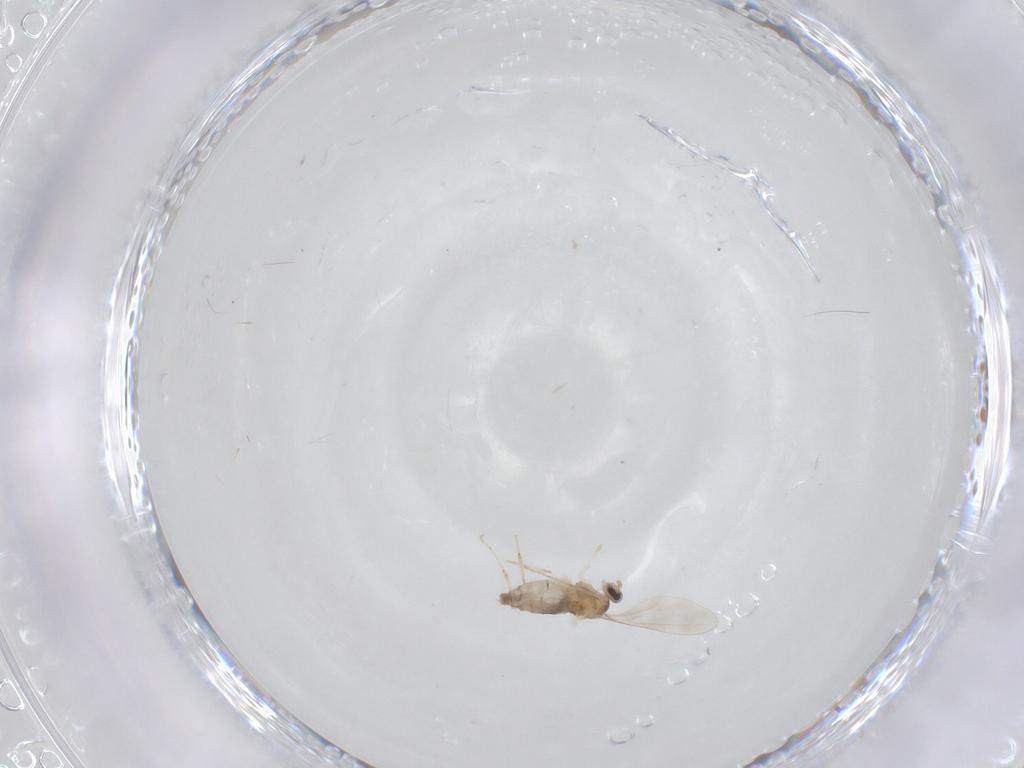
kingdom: Animalia
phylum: Arthropoda
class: Insecta
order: Diptera
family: Cecidomyiidae
